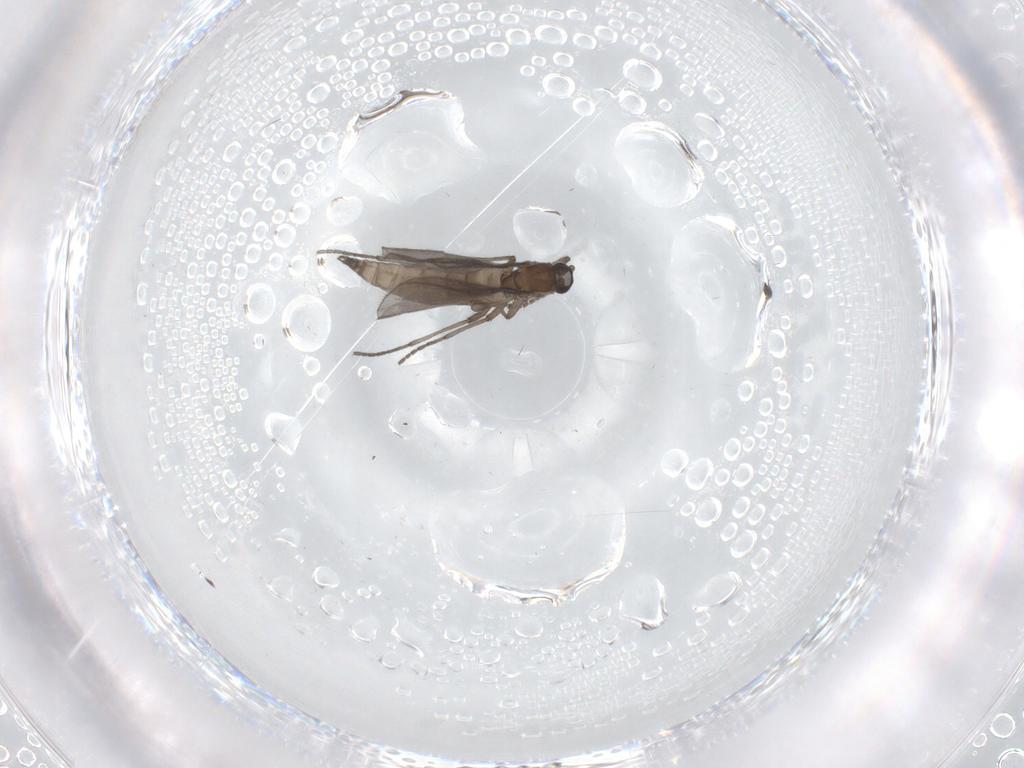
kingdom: Animalia
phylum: Arthropoda
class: Insecta
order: Diptera
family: Sciaridae
